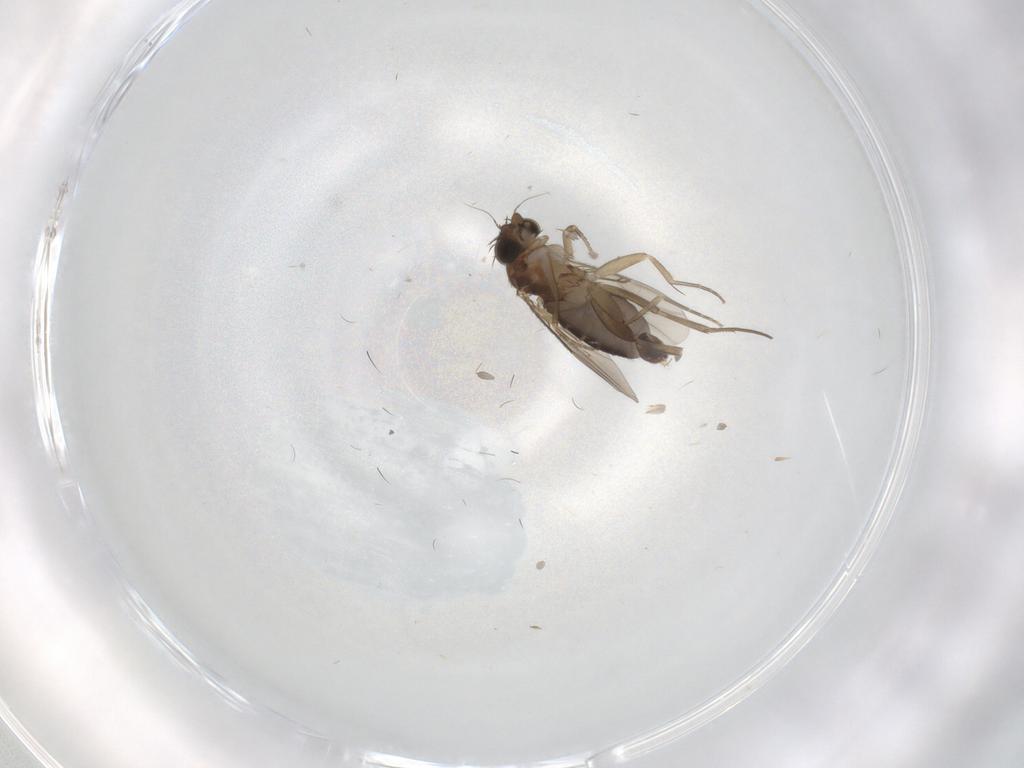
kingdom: Animalia
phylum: Arthropoda
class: Insecta
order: Diptera
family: Phoridae
